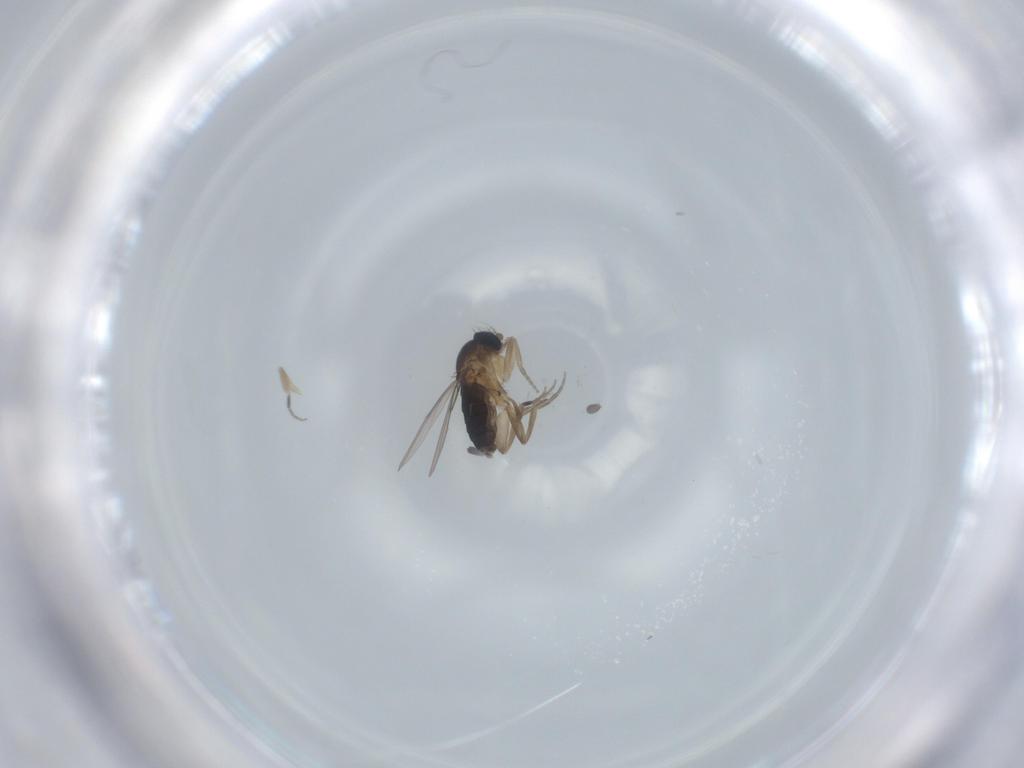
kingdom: Animalia
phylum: Arthropoda
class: Insecta
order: Diptera
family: Phoridae
